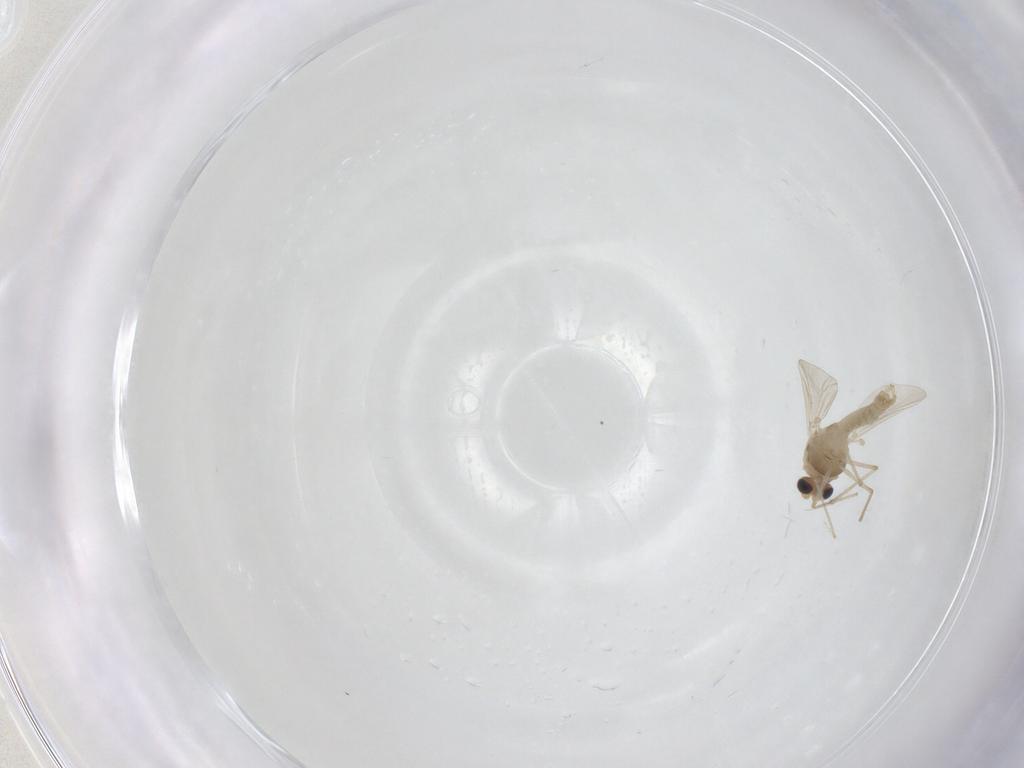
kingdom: Animalia
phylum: Arthropoda
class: Insecta
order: Diptera
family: Chironomidae
